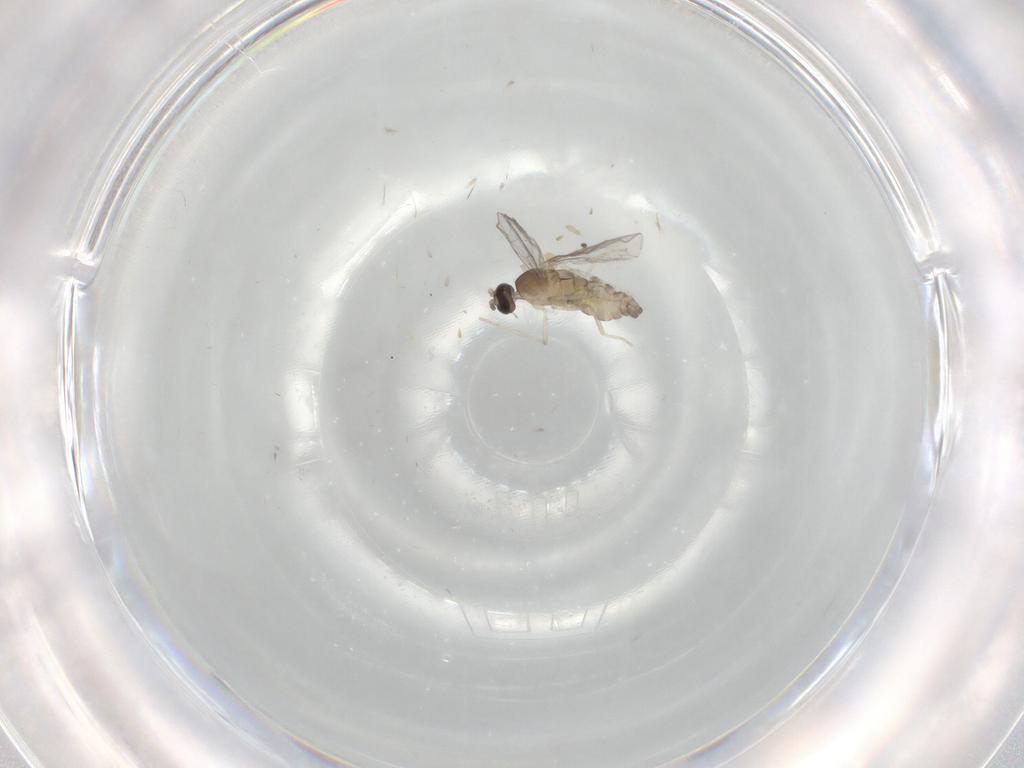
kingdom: Animalia
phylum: Arthropoda
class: Insecta
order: Diptera
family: Cecidomyiidae
